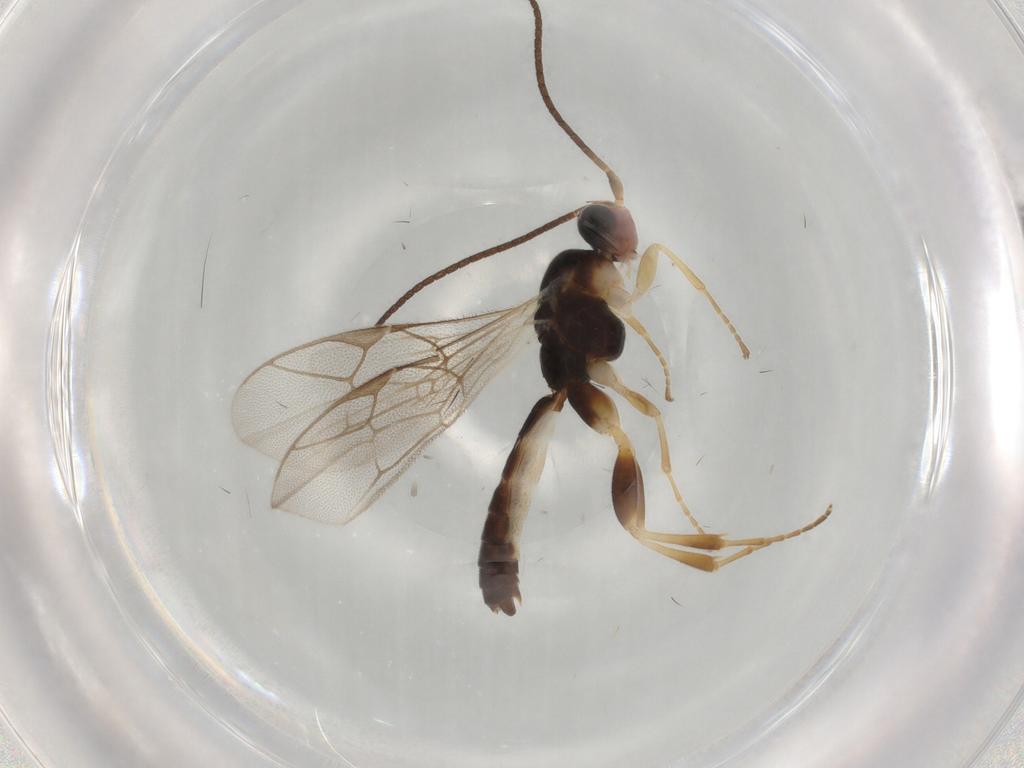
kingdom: Animalia
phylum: Arthropoda
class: Insecta
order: Hymenoptera
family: Ichneumonidae
